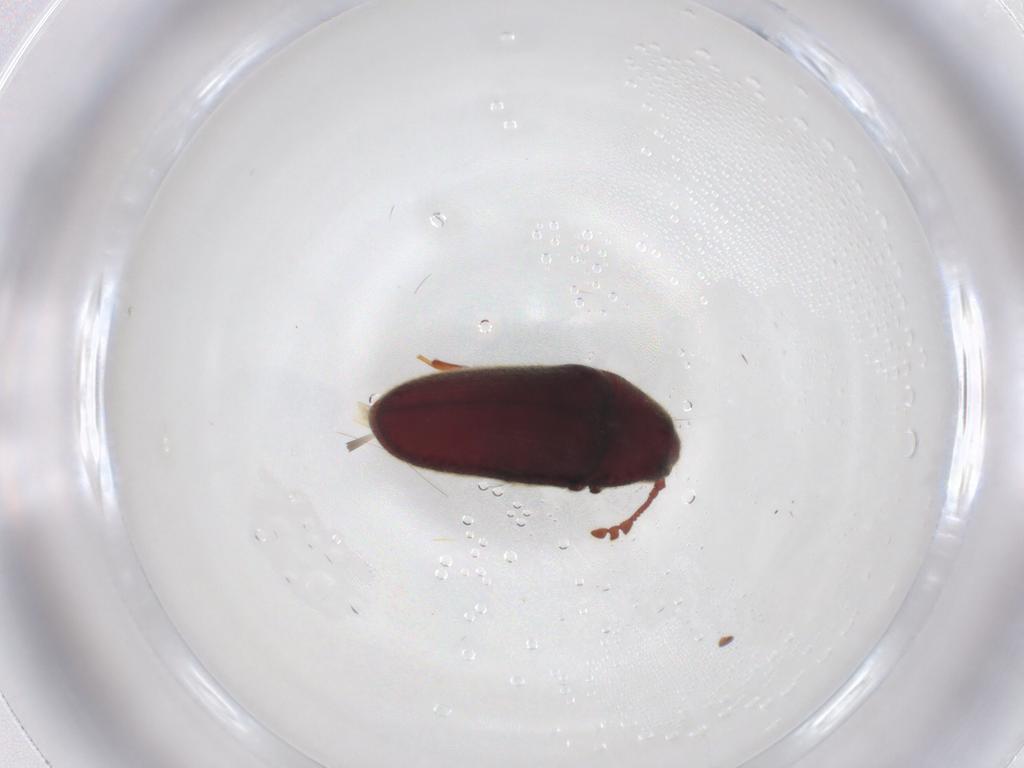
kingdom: Animalia
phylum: Arthropoda
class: Insecta
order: Coleoptera
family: Throscidae
